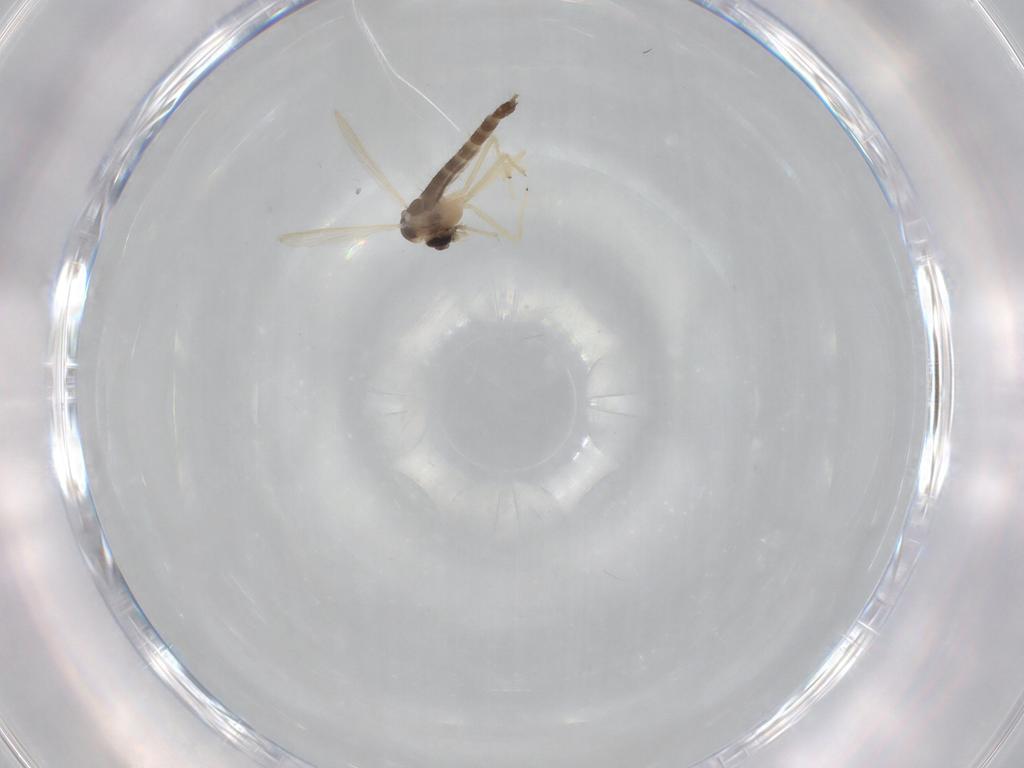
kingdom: Animalia
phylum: Arthropoda
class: Insecta
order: Diptera
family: Chironomidae
